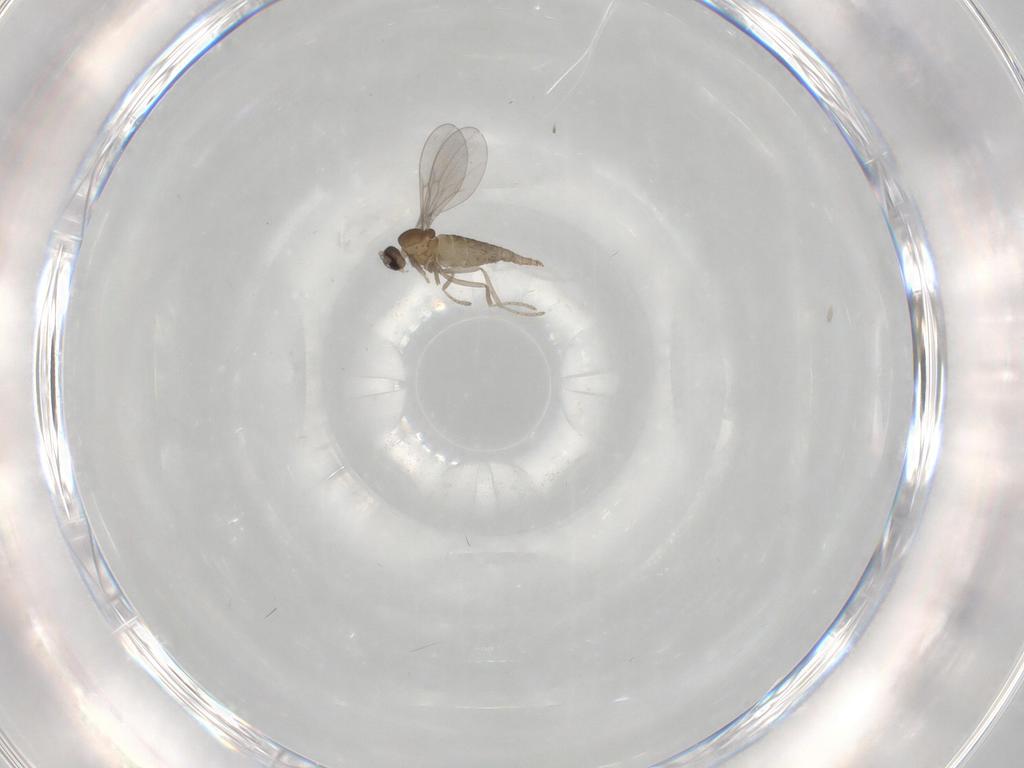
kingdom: Animalia
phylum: Arthropoda
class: Insecta
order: Diptera
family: Cecidomyiidae
